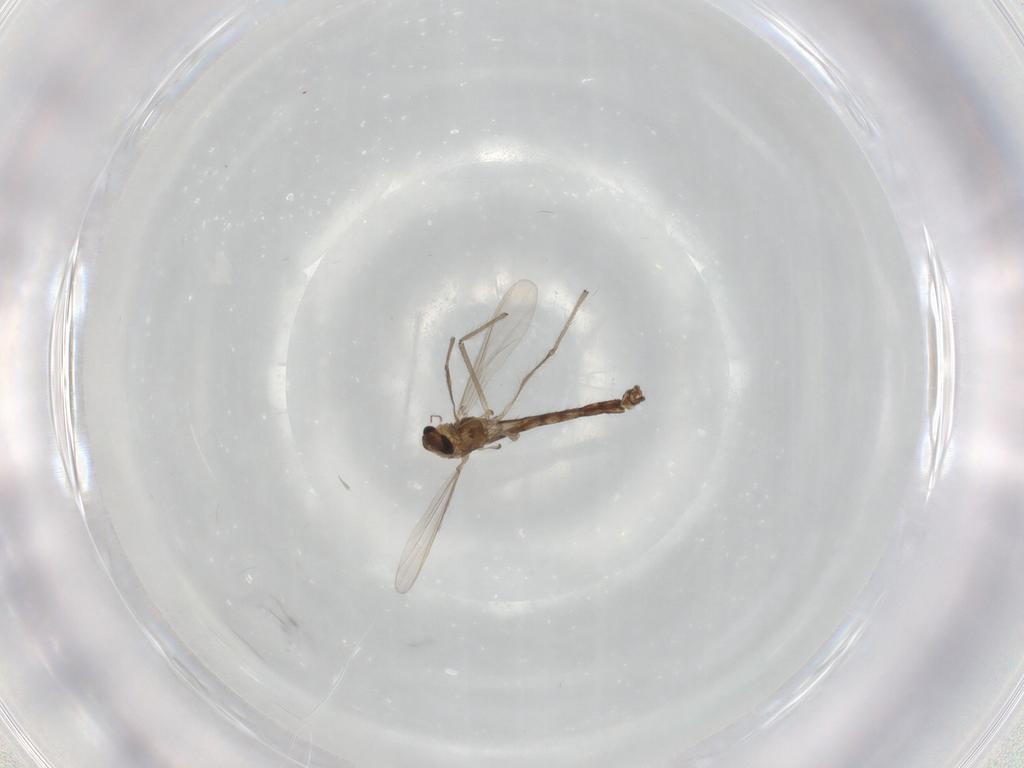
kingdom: Animalia
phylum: Arthropoda
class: Insecta
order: Diptera
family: Chironomidae
